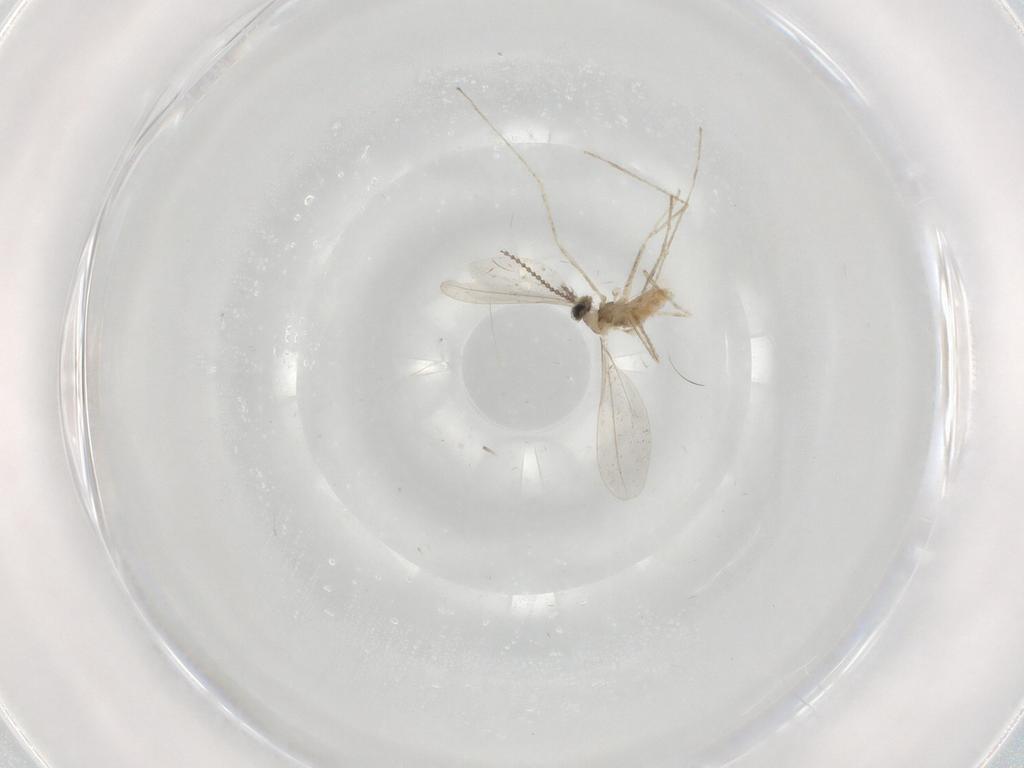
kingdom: Animalia
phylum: Arthropoda
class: Insecta
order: Diptera
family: Cecidomyiidae
